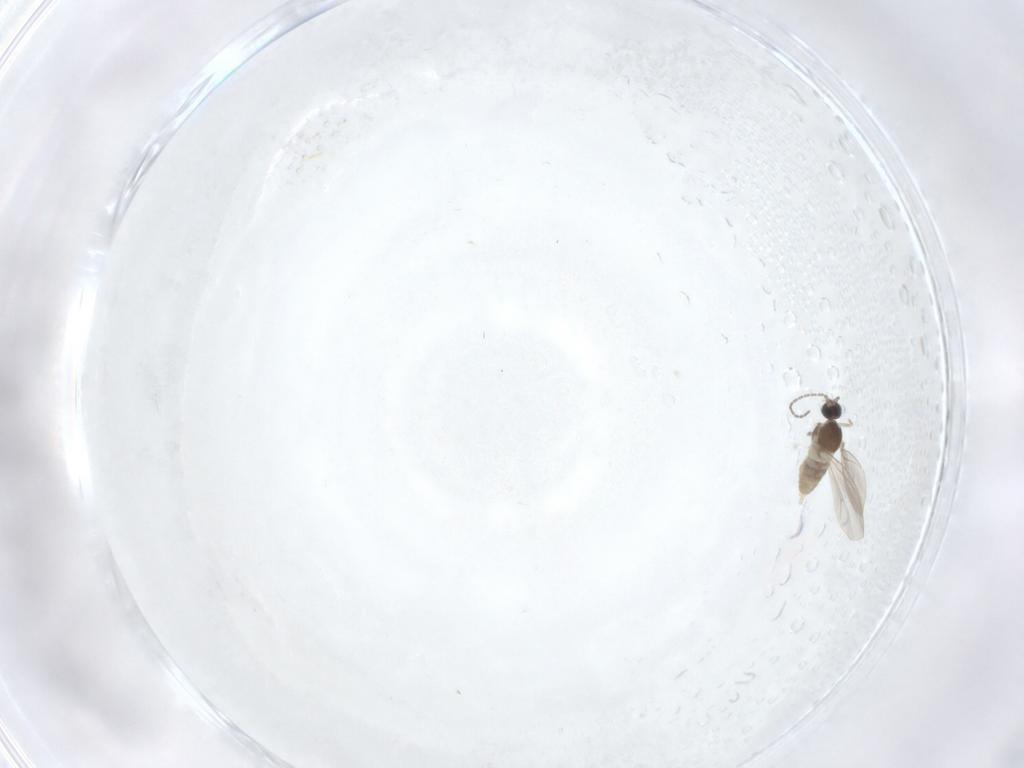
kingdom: Animalia
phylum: Arthropoda
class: Insecta
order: Diptera
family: Cecidomyiidae
